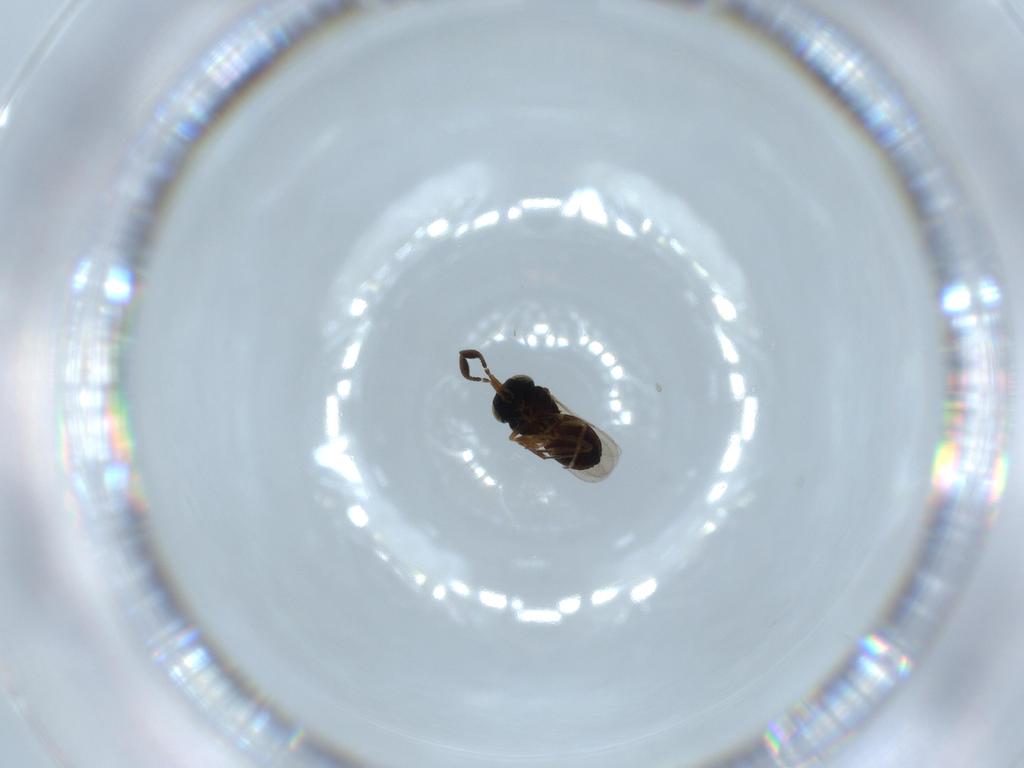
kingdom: Animalia
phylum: Arthropoda
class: Insecta
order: Hymenoptera
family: Scelionidae
